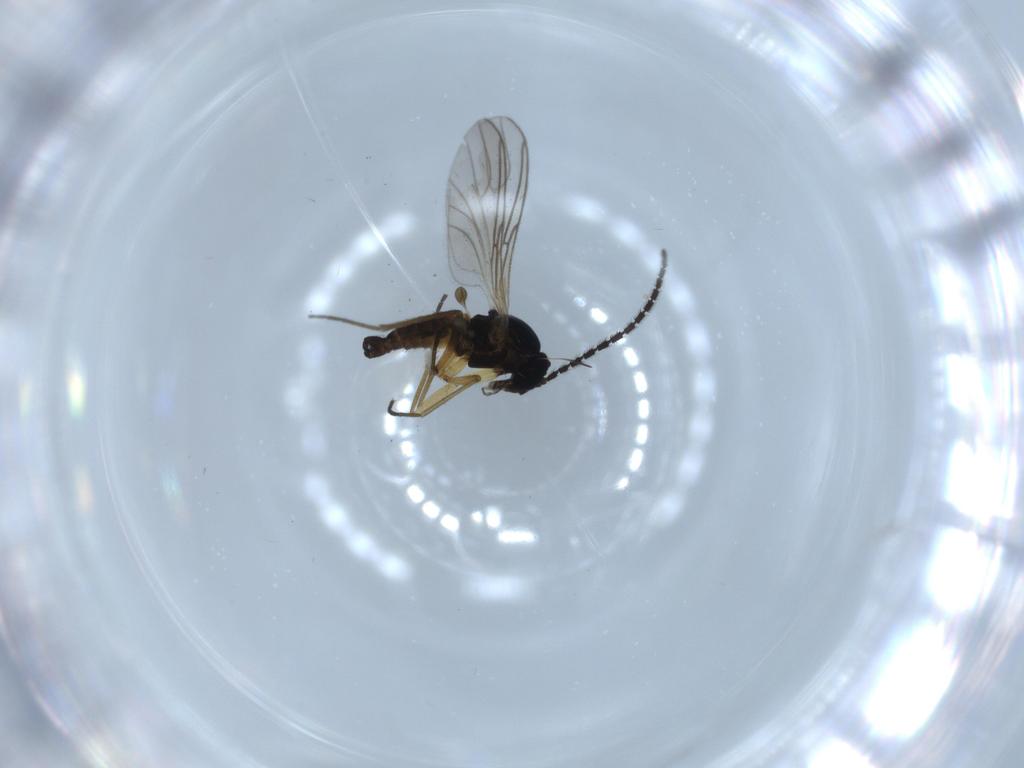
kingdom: Animalia
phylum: Arthropoda
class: Insecta
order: Diptera
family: Sciaridae
